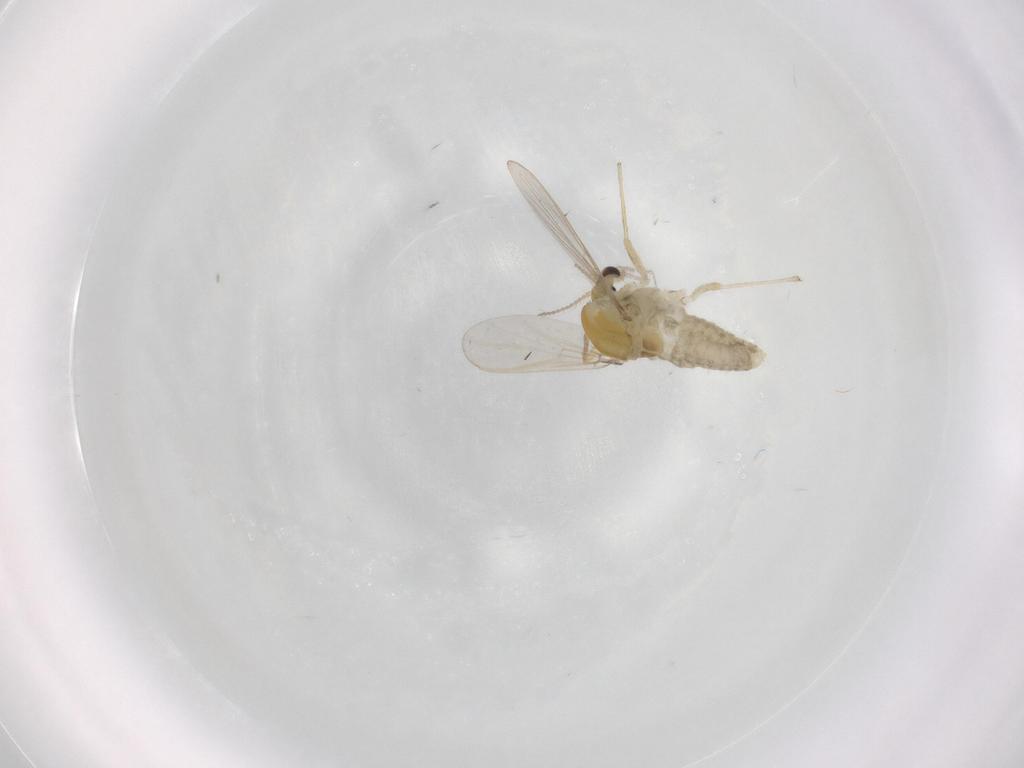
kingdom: Animalia
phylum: Arthropoda
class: Insecta
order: Diptera
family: Chironomidae
